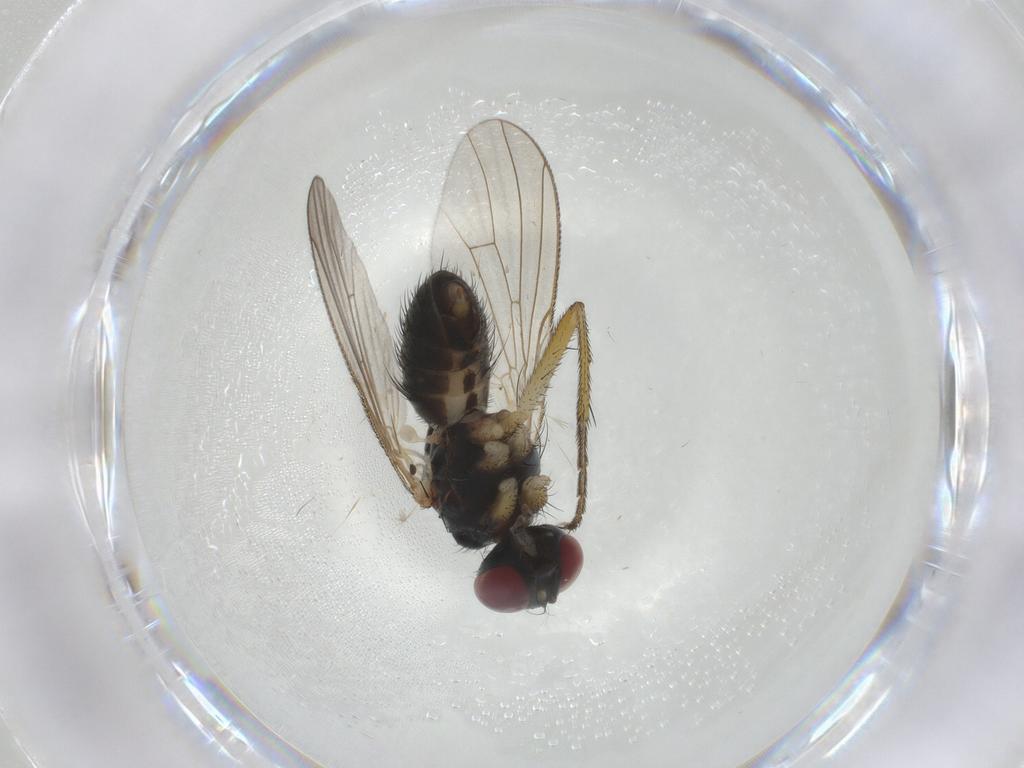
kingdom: Animalia
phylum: Arthropoda
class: Insecta
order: Diptera
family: Muscidae
